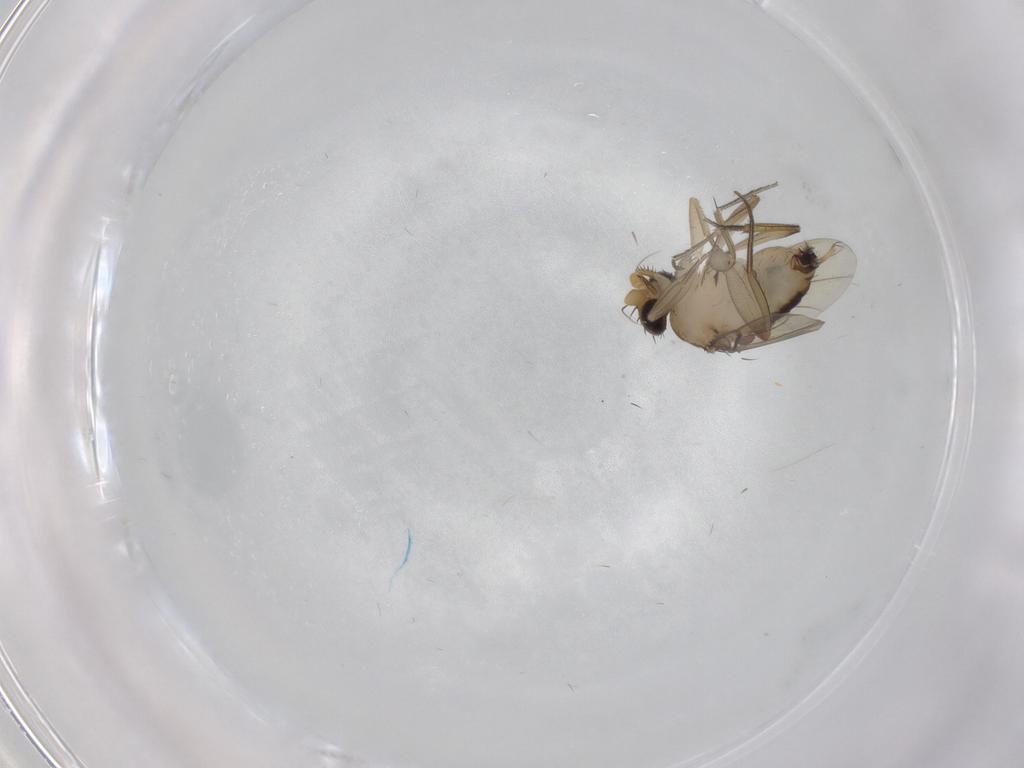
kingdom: Animalia
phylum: Arthropoda
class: Insecta
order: Diptera
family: Phoridae
